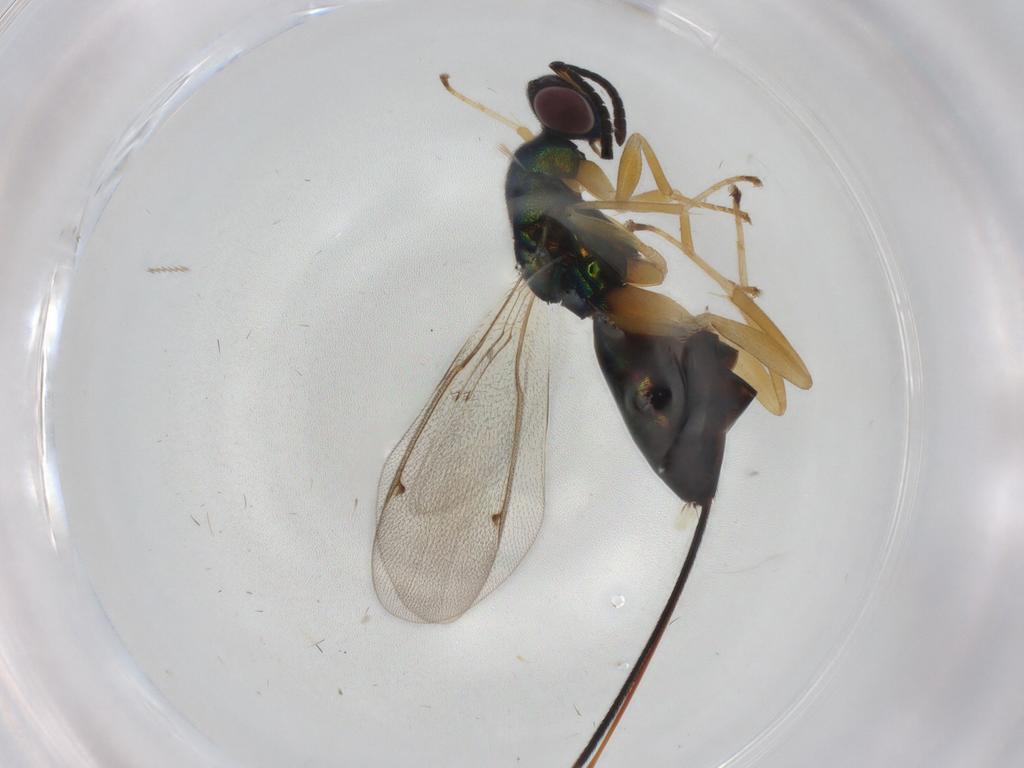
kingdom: Animalia
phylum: Arthropoda
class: Insecta
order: Hymenoptera
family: Torymidae
